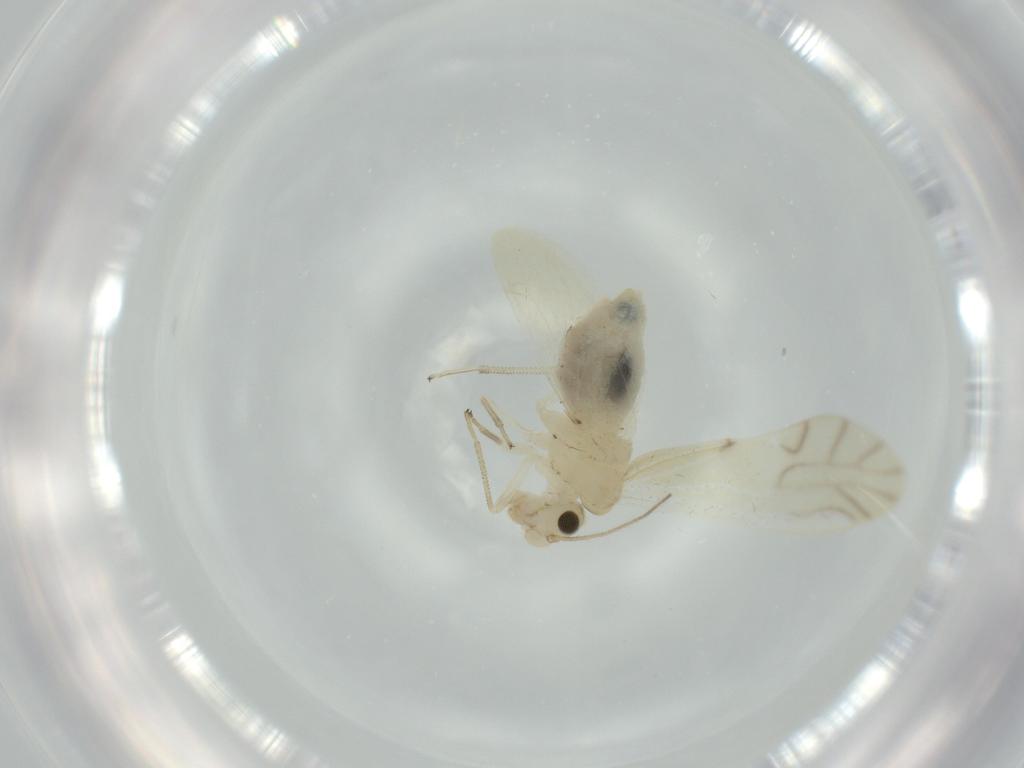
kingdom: Animalia
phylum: Arthropoda
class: Insecta
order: Psocodea
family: Caeciliusidae
